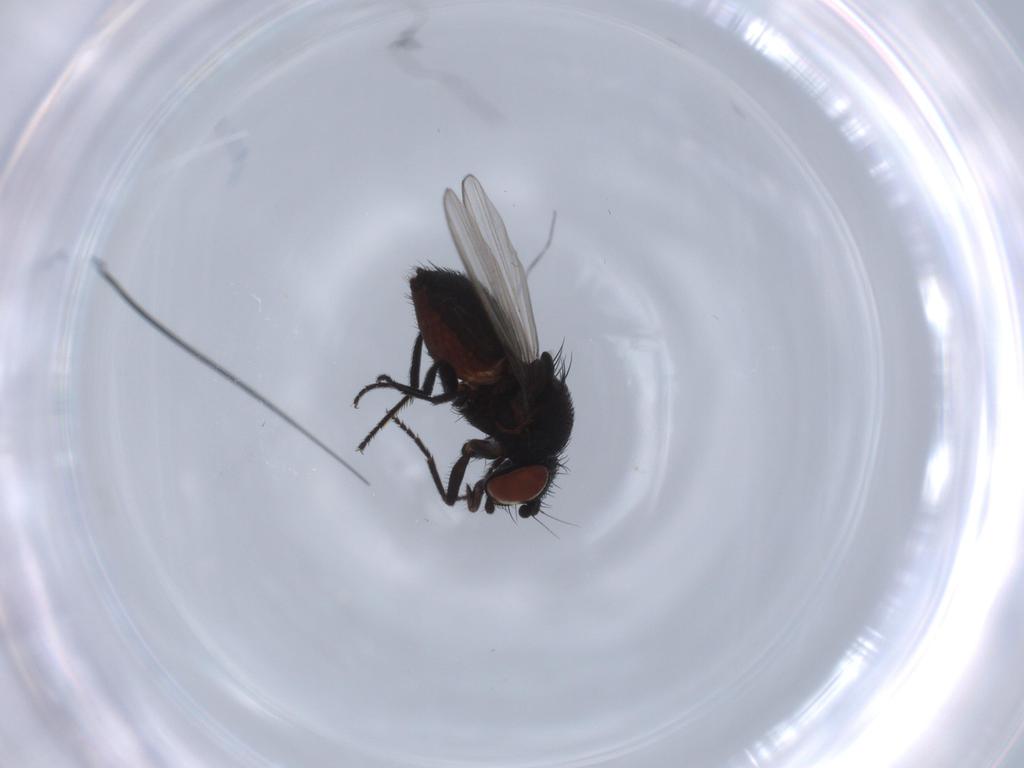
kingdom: Animalia
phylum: Arthropoda
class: Insecta
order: Diptera
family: Milichiidae
